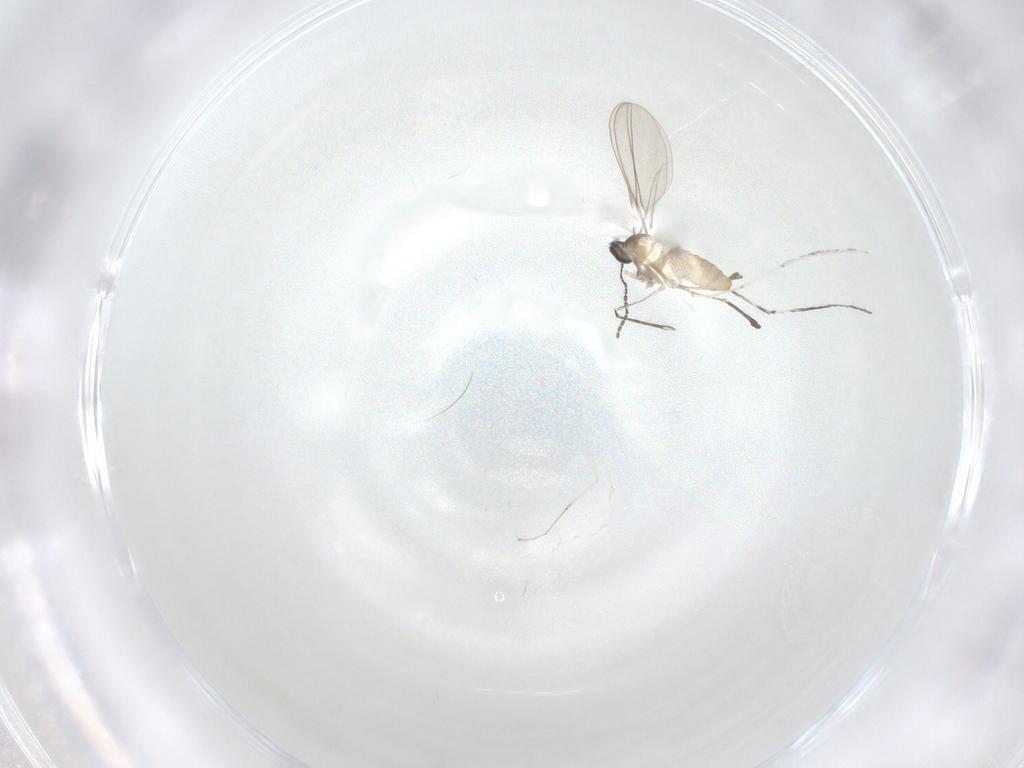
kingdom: Animalia
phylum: Arthropoda
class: Insecta
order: Diptera
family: Cecidomyiidae
